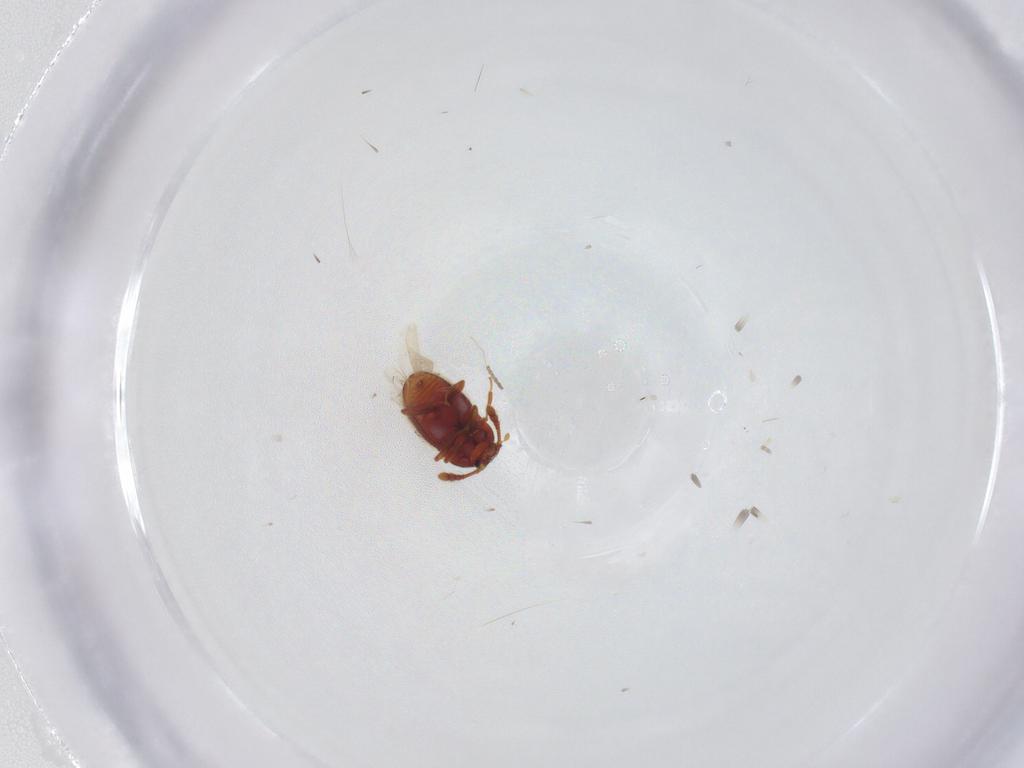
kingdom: Animalia
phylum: Arthropoda
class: Insecta
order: Coleoptera
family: Staphylinidae
